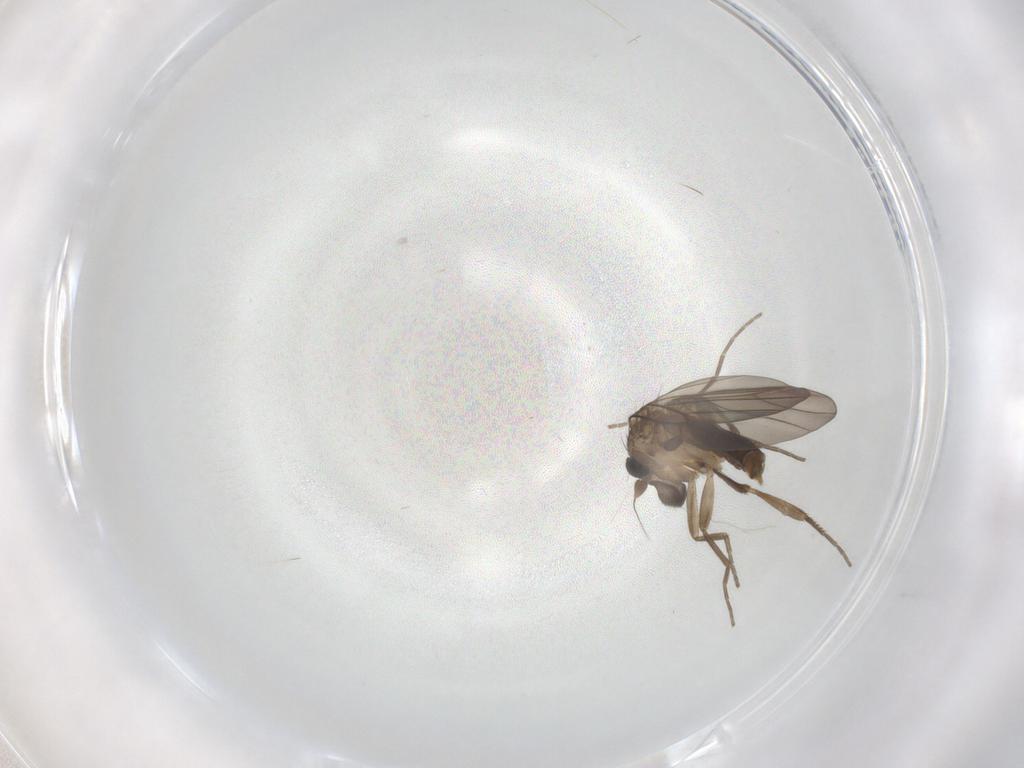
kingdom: Animalia
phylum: Arthropoda
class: Insecta
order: Diptera
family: Phoridae
